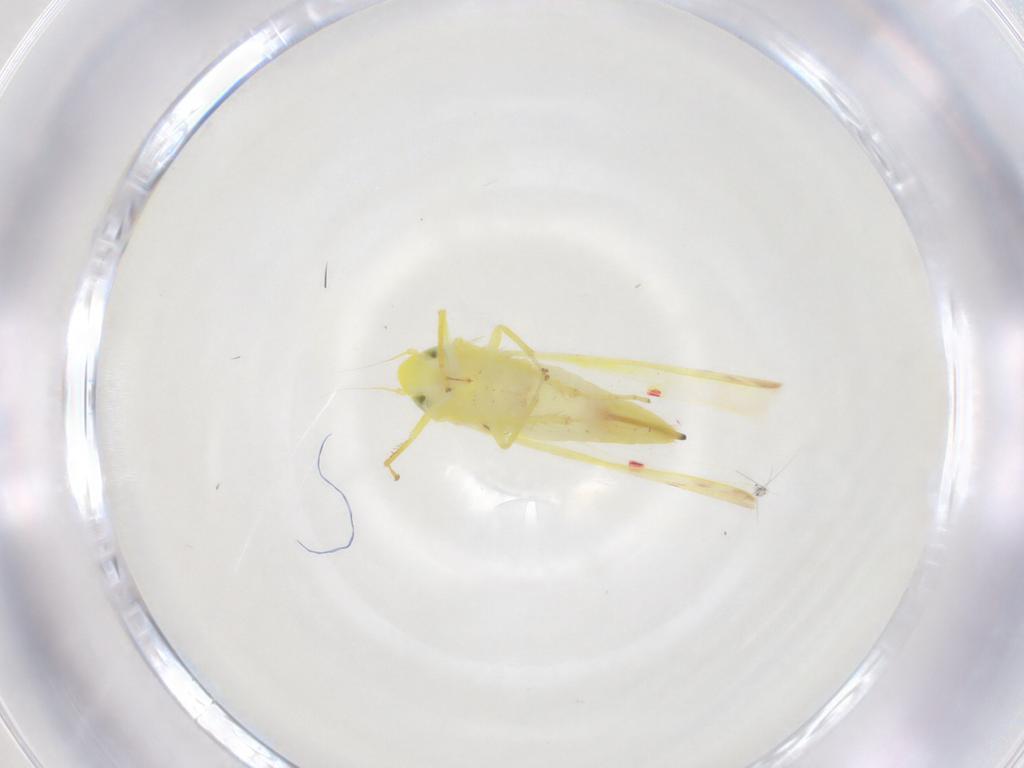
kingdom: Animalia
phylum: Arthropoda
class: Insecta
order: Hemiptera
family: Cicadellidae
